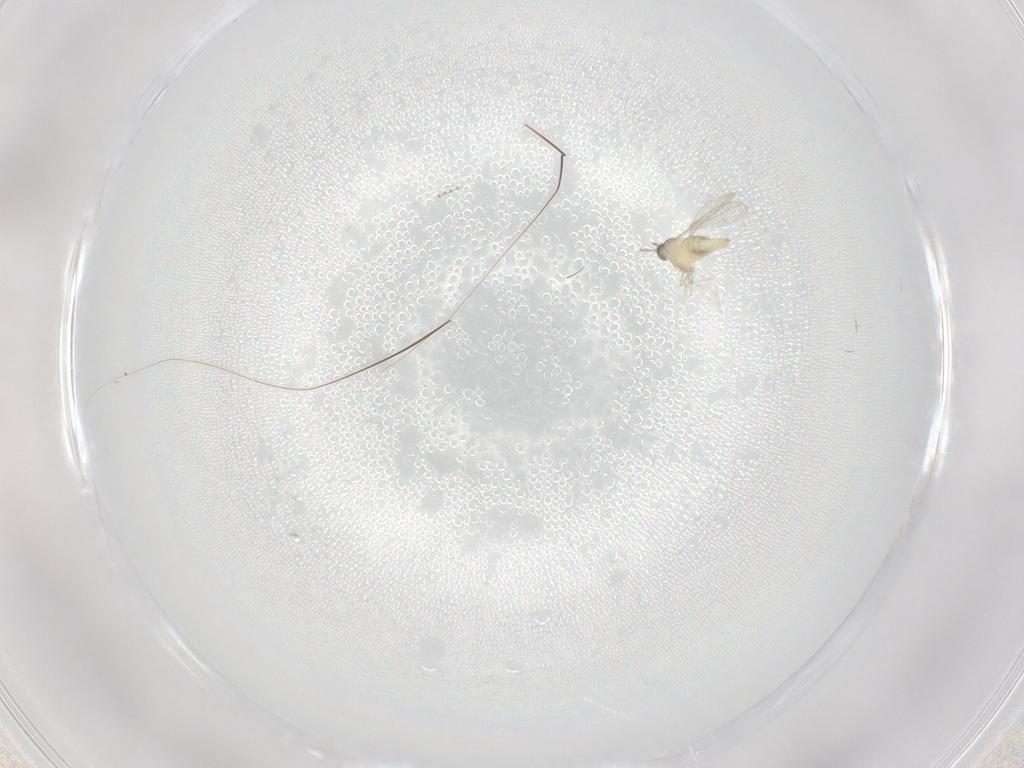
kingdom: Animalia
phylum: Arthropoda
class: Insecta
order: Diptera
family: Cecidomyiidae
